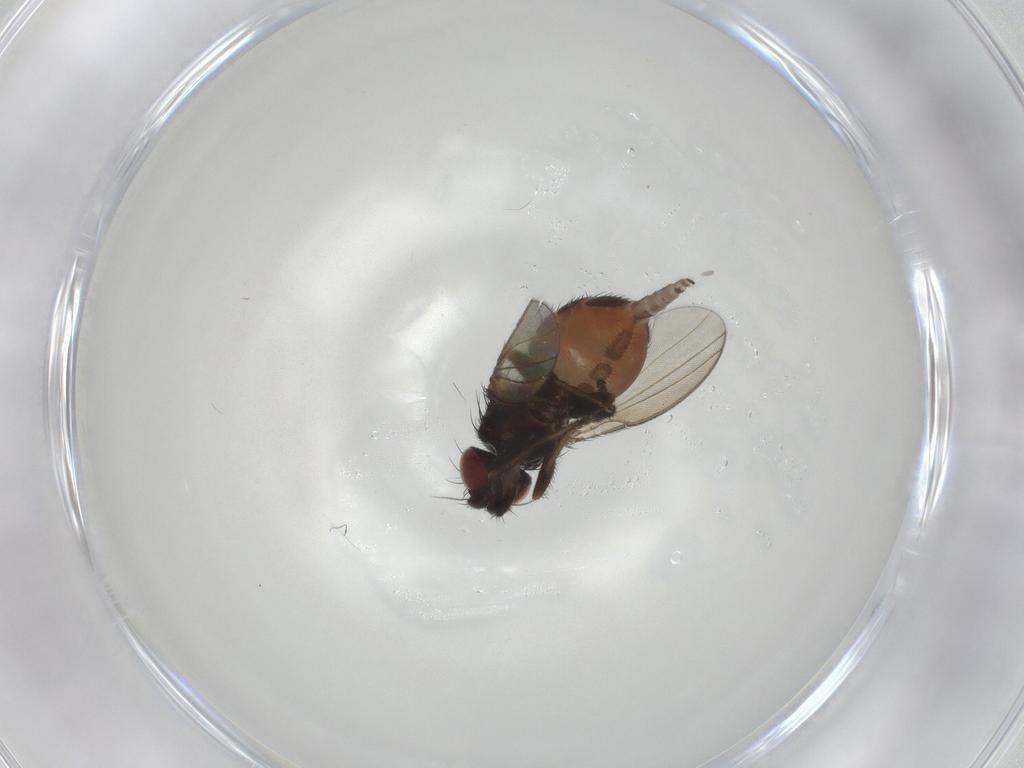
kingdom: Animalia
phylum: Arthropoda
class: Insecta
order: Diptera
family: Milichiidae
